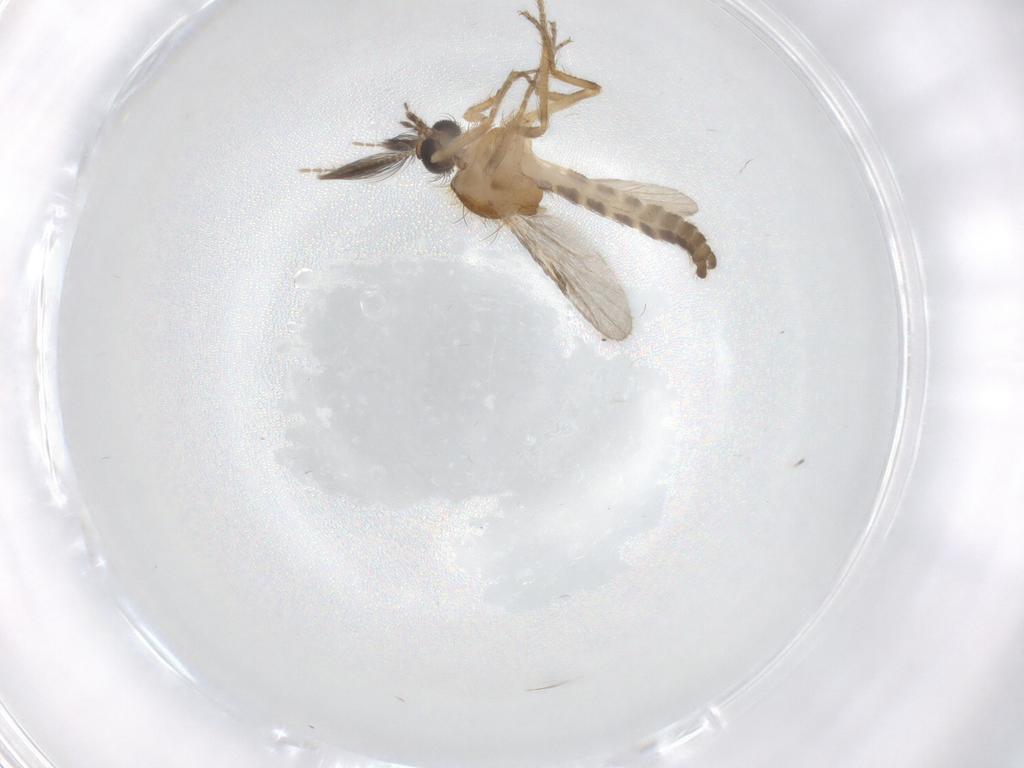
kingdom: Animalia
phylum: Arthropoda
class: Insecta
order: Diptera
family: Ceratopogonidae
